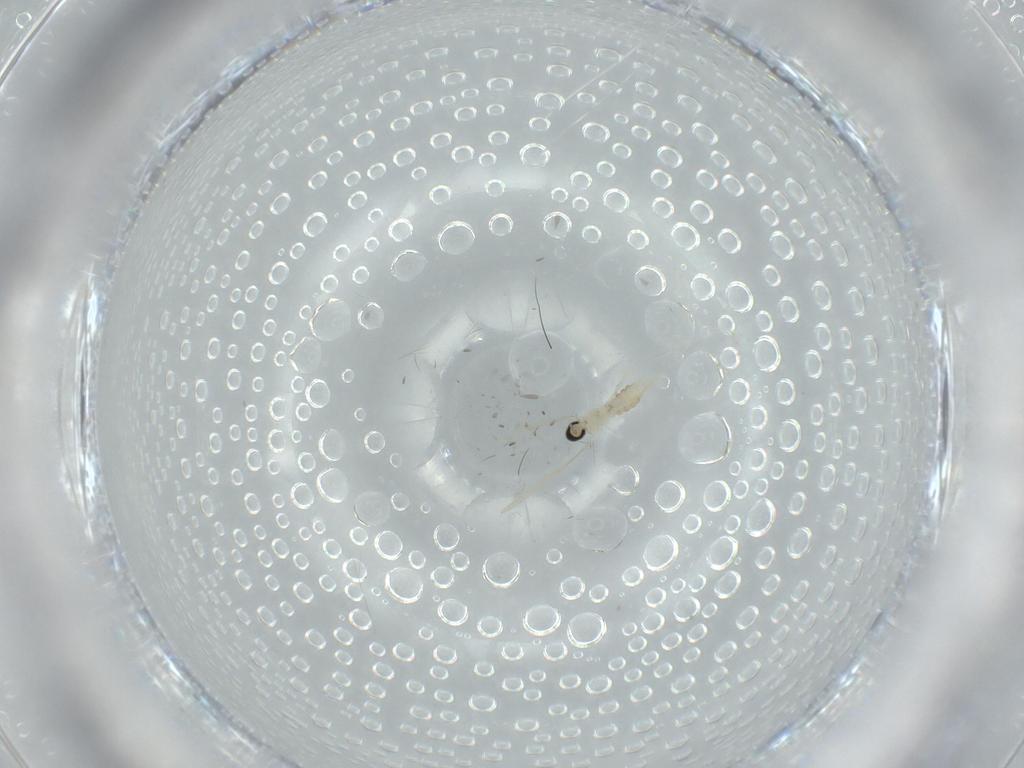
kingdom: Animalia
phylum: Arthropoda
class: Insecta
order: Diptera
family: Cecidomyiidae
